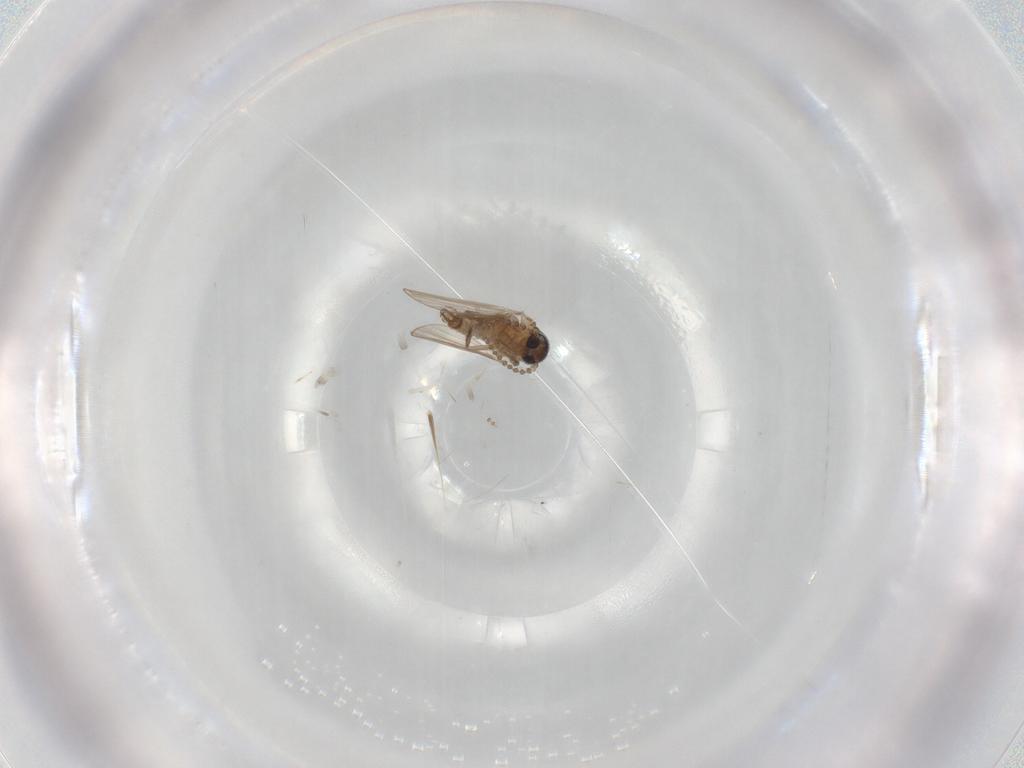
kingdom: Animalia
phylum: Arthropoda
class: Insecta
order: Diptera
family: Psychodidae
